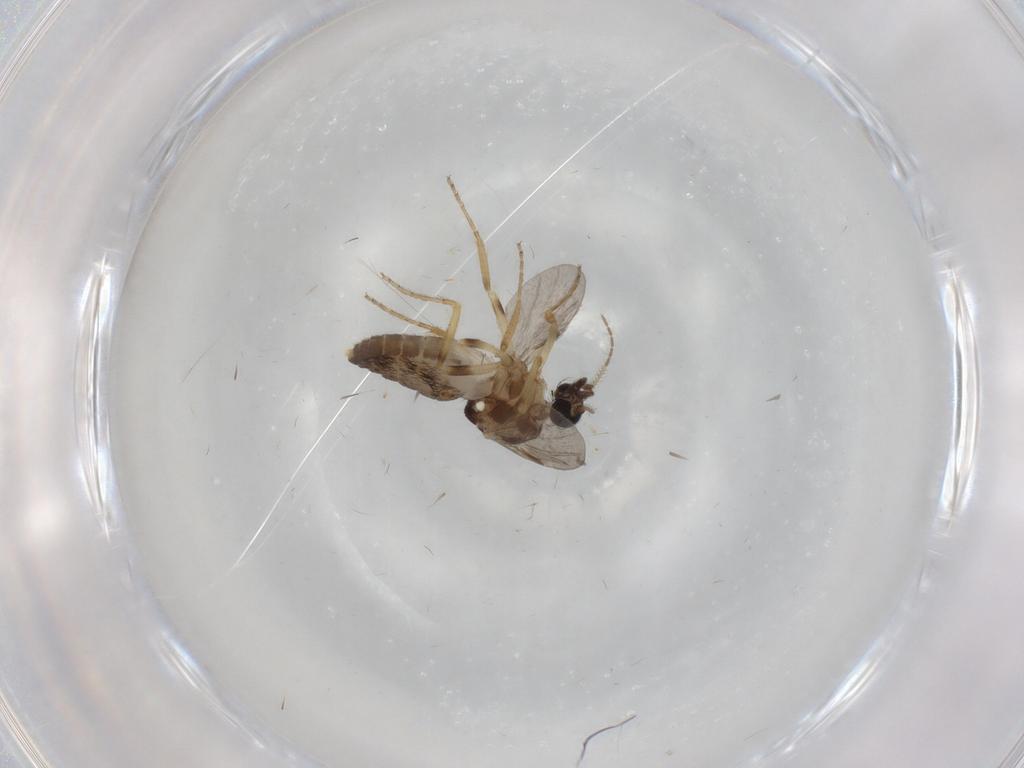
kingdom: Animalia
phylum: Arthropoda
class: Insecta
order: Diptera
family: Ceratopogonidae
